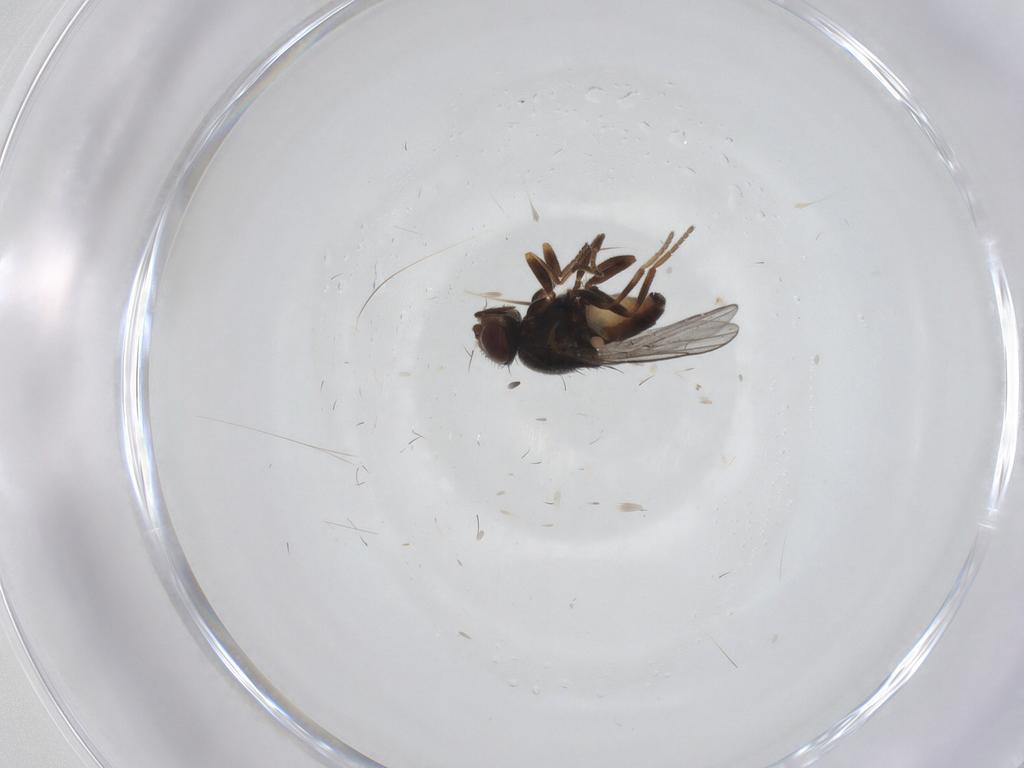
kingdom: Animalia
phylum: Arthropoda
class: Insecta
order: Diptera
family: Chloropidae
